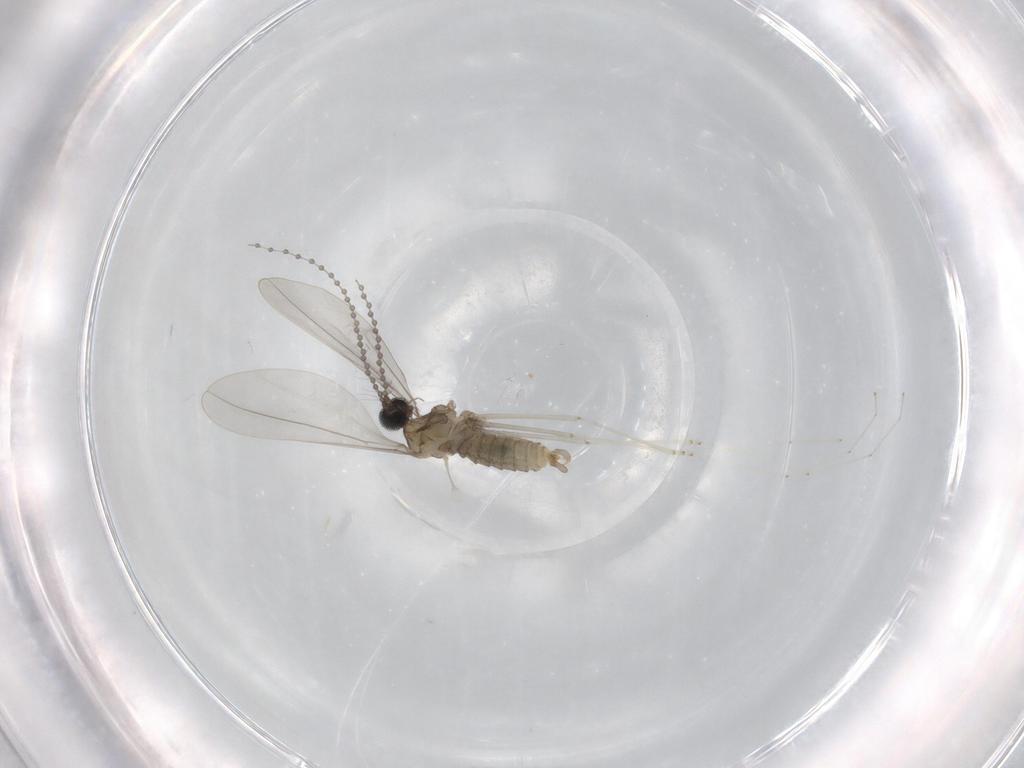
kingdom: Animalia
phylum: Arthropoda
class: Insecta
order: Diptera
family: Cecidomyiidae
